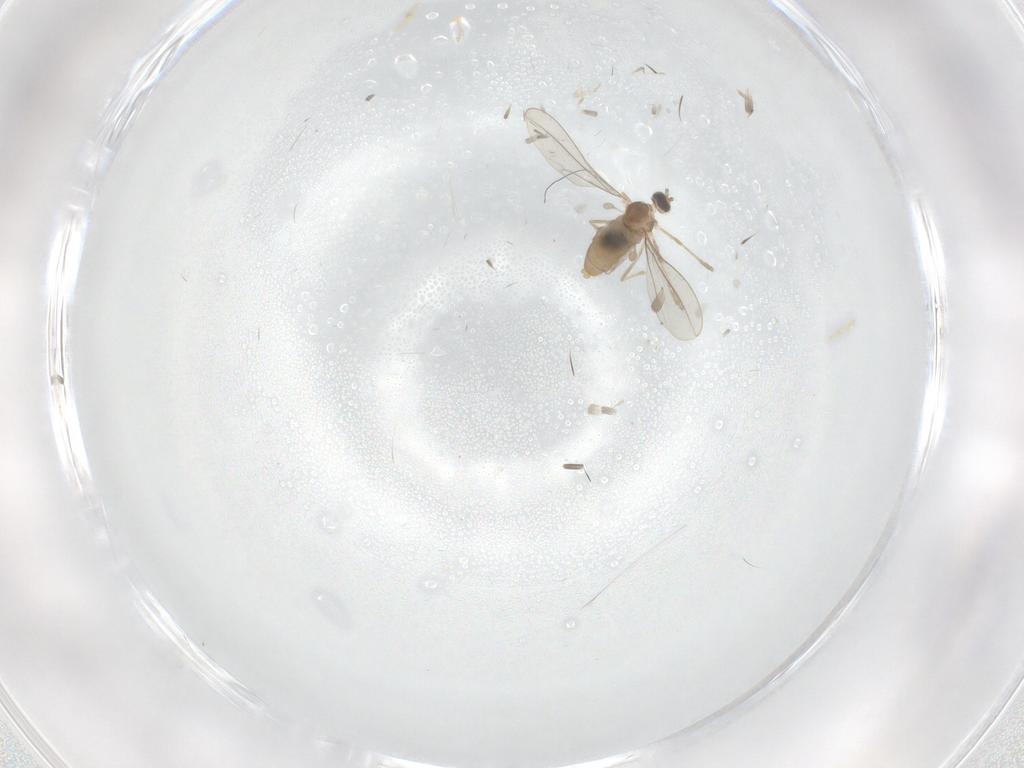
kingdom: Animalia
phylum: Arthropoda
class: Insecta
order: Diptera
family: Cecidomyiidae
